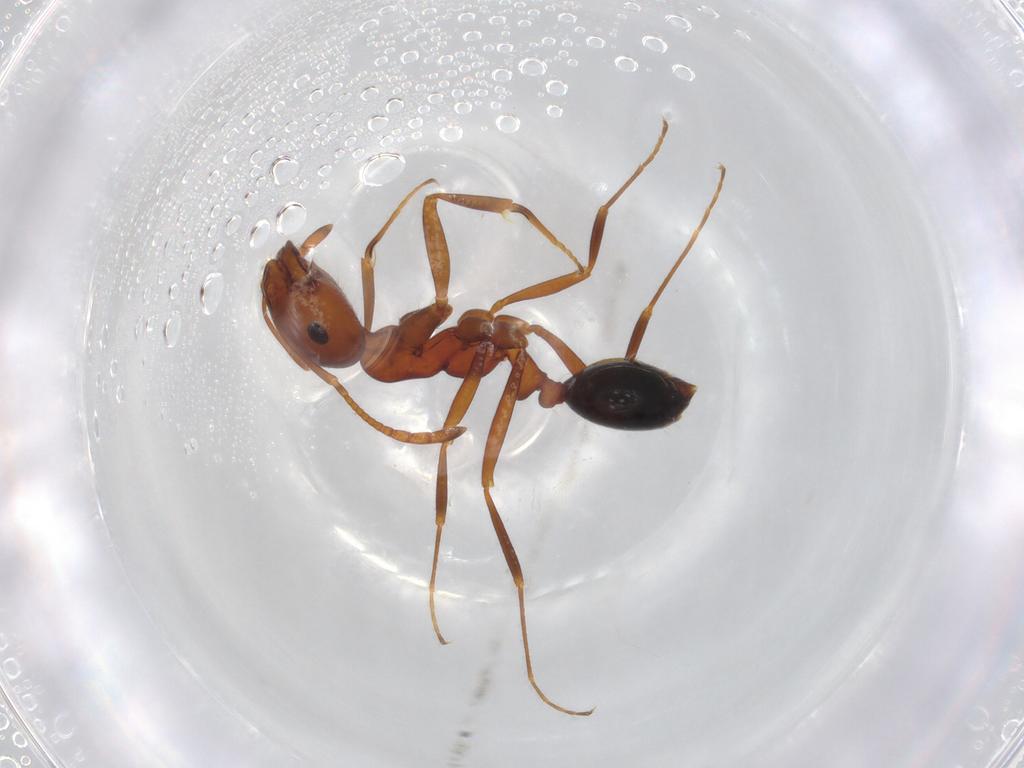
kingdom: Animalia
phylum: Arthropoda
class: Insecta
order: Hymenoptera
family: Formicidae
